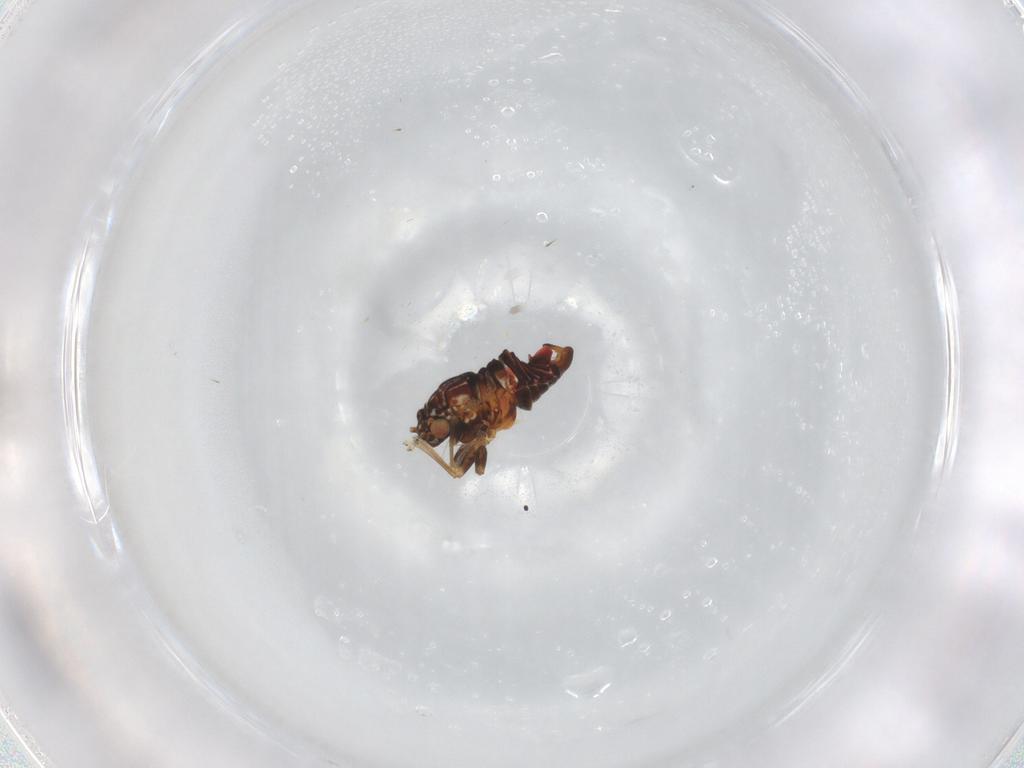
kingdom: Animalia
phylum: Arthropoda
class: Insecta
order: Hemiptera
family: Psyllidae
